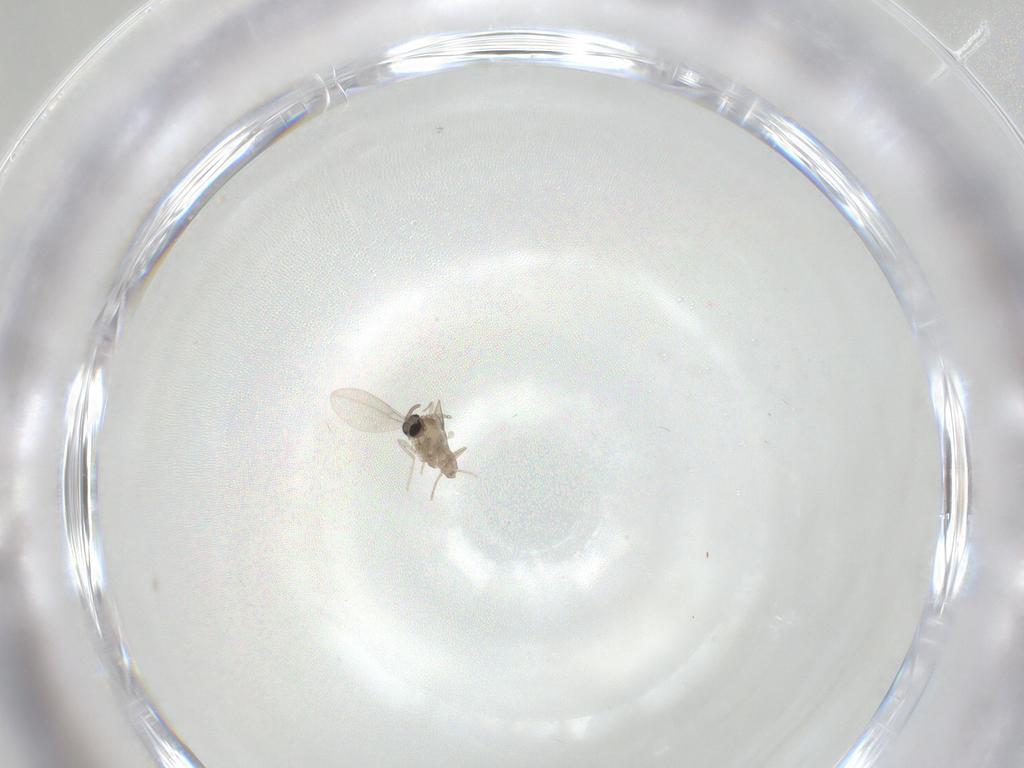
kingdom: Animalia
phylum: Arthropoda
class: Insecta
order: Diptera
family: Cecidomyiidae
